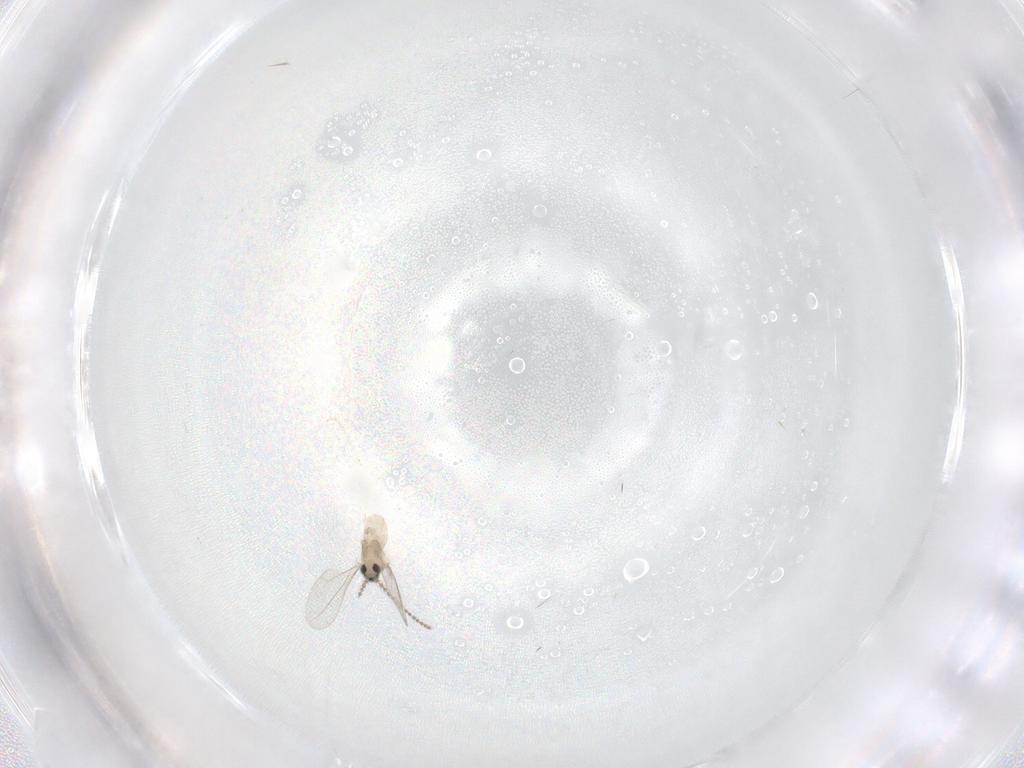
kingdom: Animalia
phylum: Arthropoda
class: Insecta
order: Diptera
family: Cecidomyiidae
